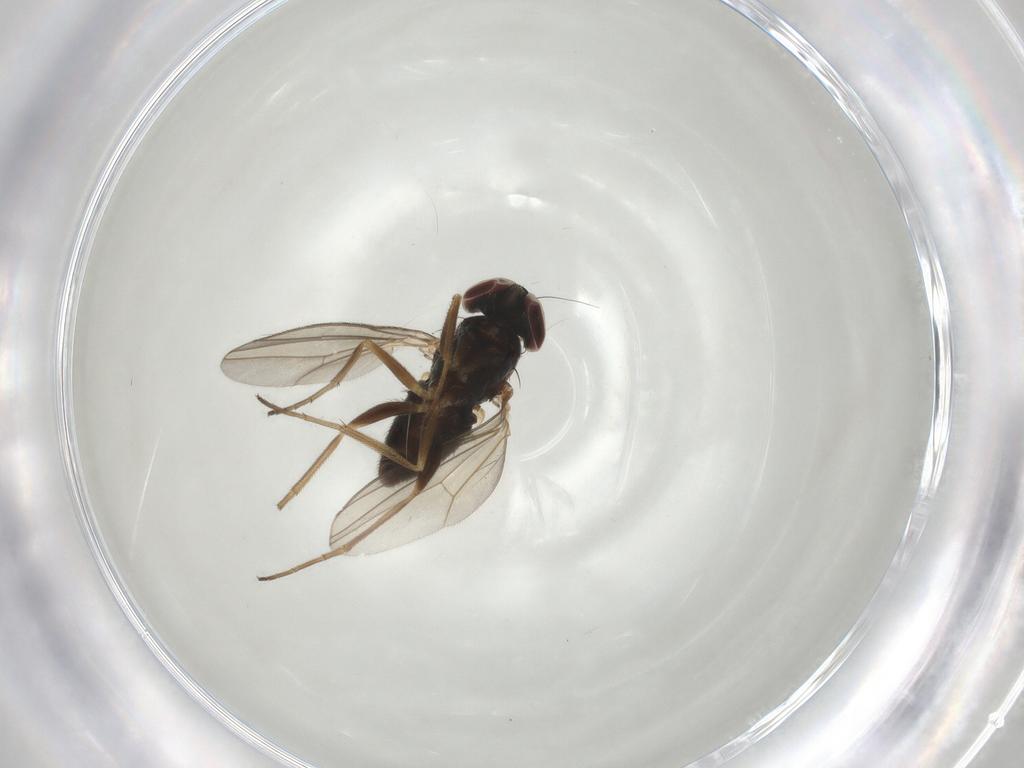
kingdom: Animalia
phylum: Arthropoda
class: Insecta
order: Diptera
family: Dolichopodidae
